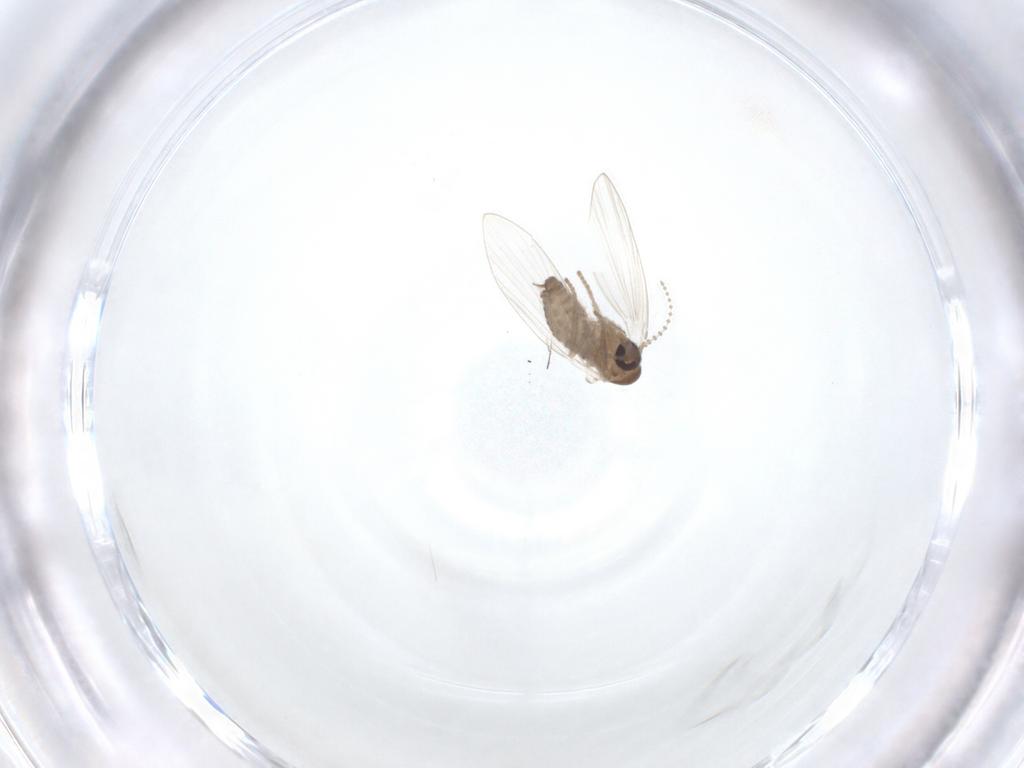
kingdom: Animalia
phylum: Arthropoda
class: Insecta
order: Diptera
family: Psychodidae
